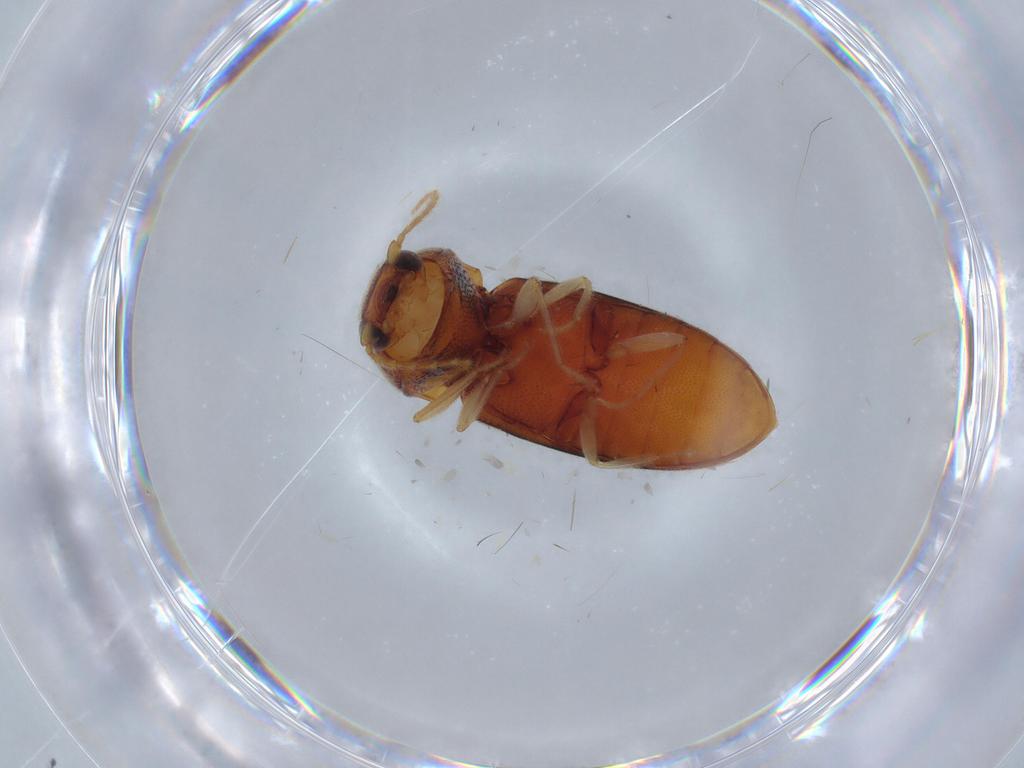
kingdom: Animalia
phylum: Arthropoda
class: Insecta
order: Coleoptera
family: Elateridae
